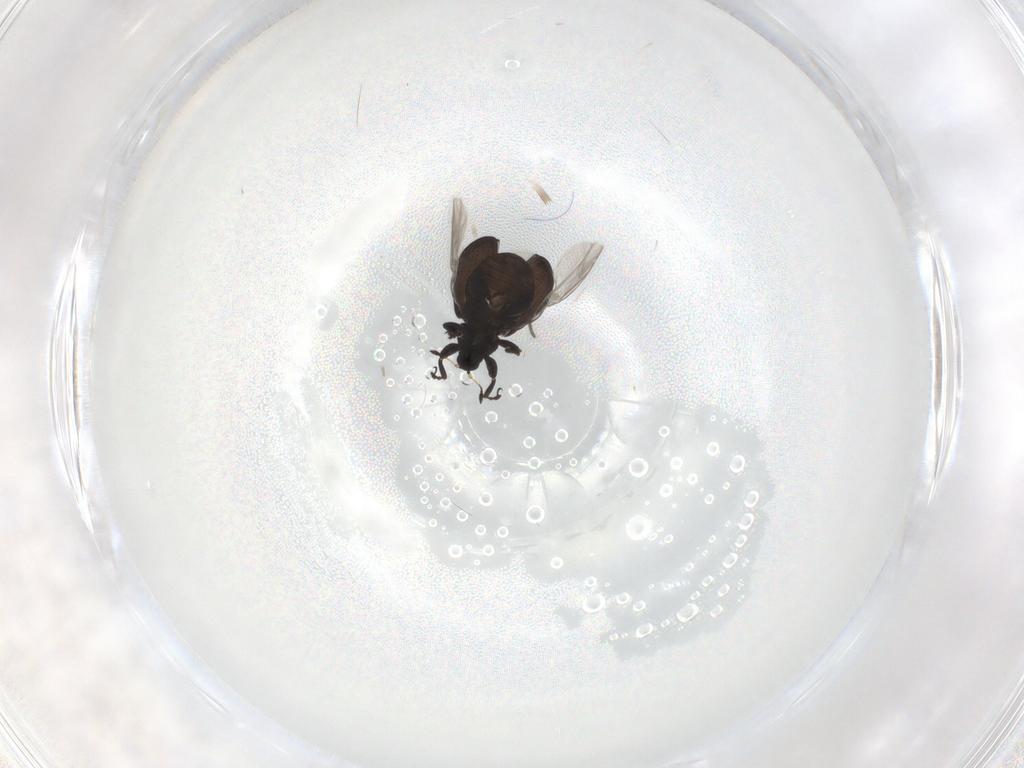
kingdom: Animalia
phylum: Arthropoda
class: Insecta
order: Coleoptera
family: Curculionidae
